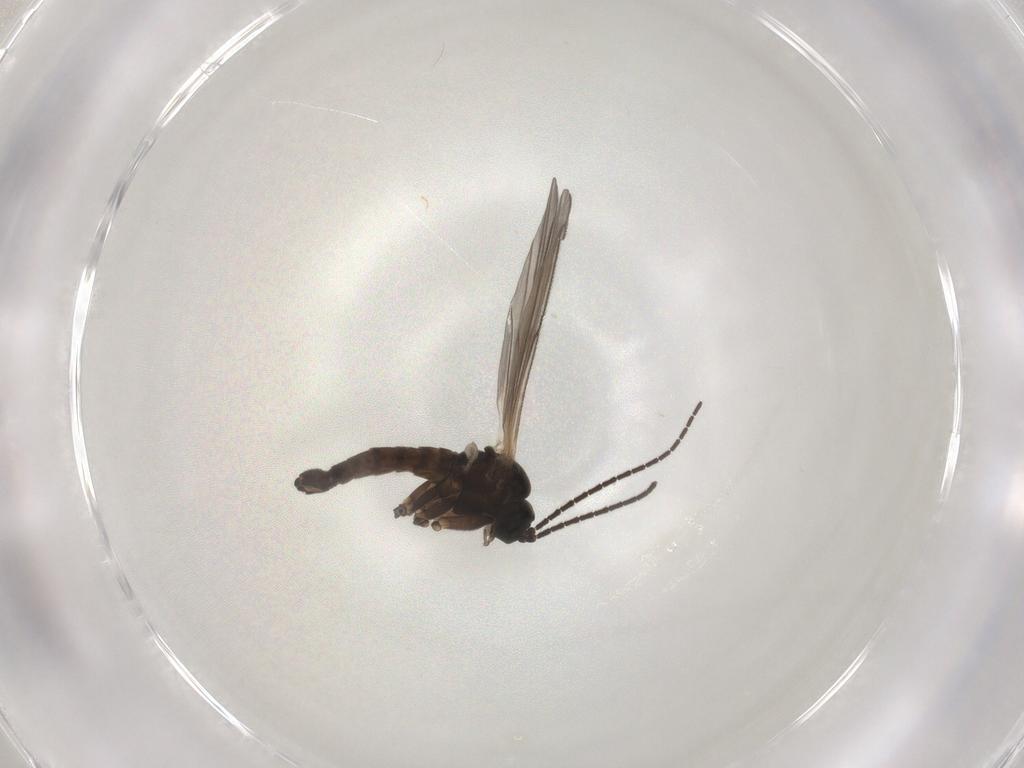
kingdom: Animalia
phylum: Arthropoda
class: Insecta
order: Diptera
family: Sciaridae
